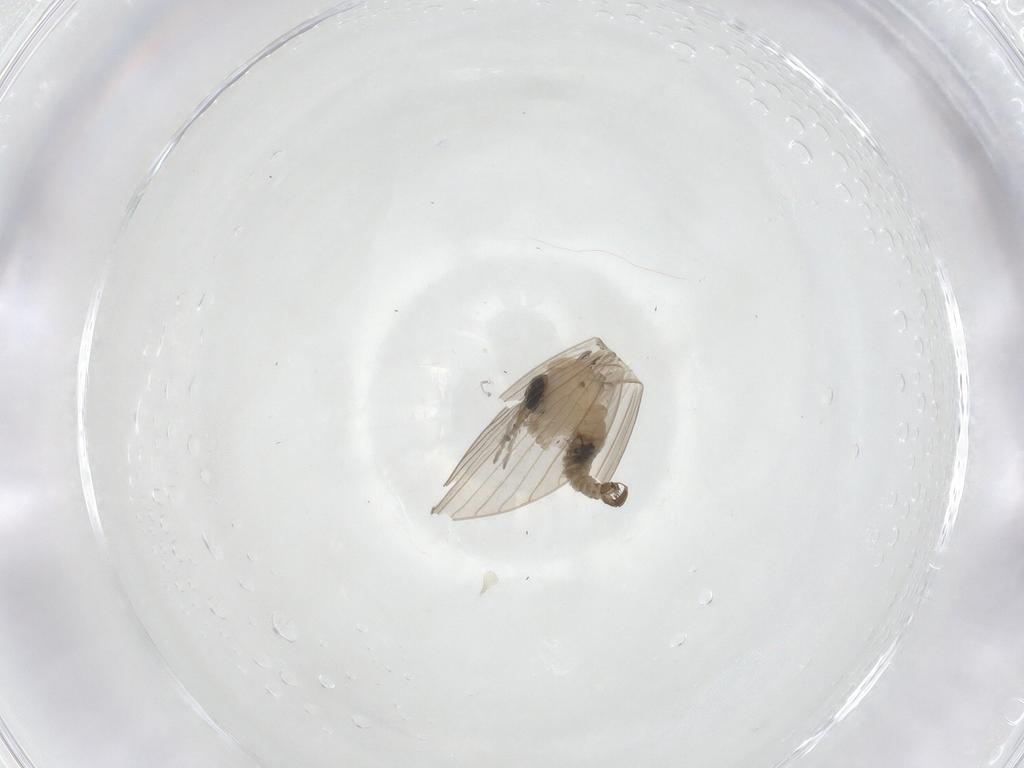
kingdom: Animalia
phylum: Arthropoda
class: Insecta
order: Diptera
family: Psychodidae
